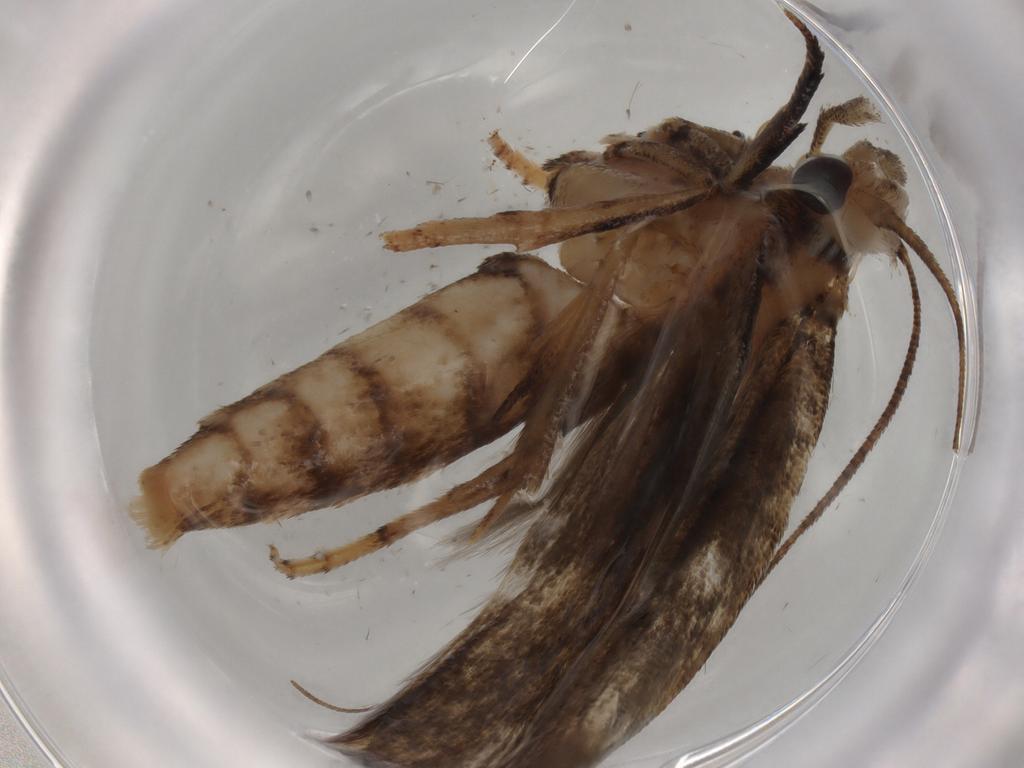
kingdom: Animalia
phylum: Arthropoda
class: Insecta
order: Lepidoptera
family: Yponomeutidae
